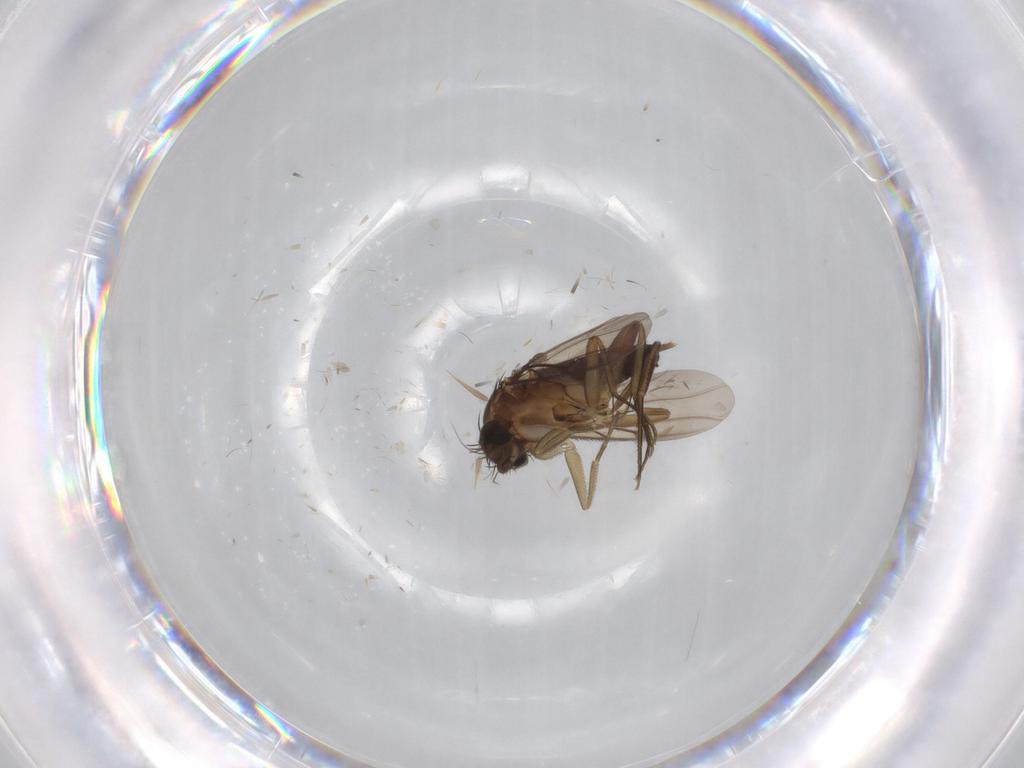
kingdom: Animalia
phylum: Arthropoda
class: Insecta
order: Diptera
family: Phoridae
